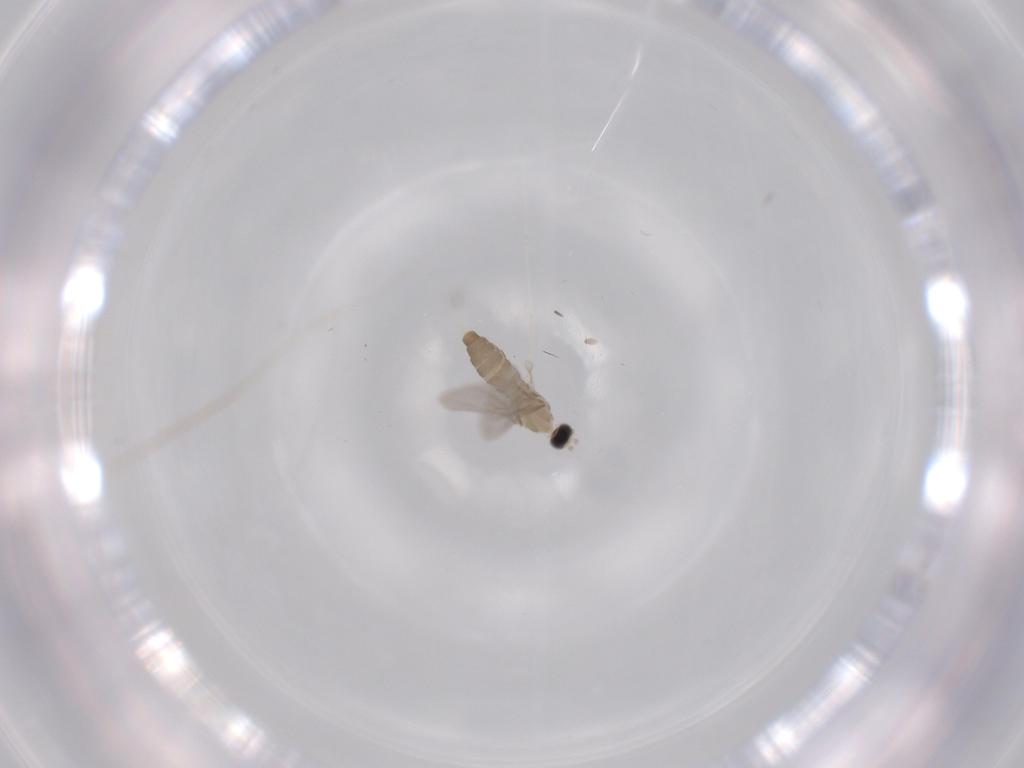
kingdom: Animalia
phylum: Arthropoda
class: Insecta
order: Diptera
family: Cecidomyiidae
